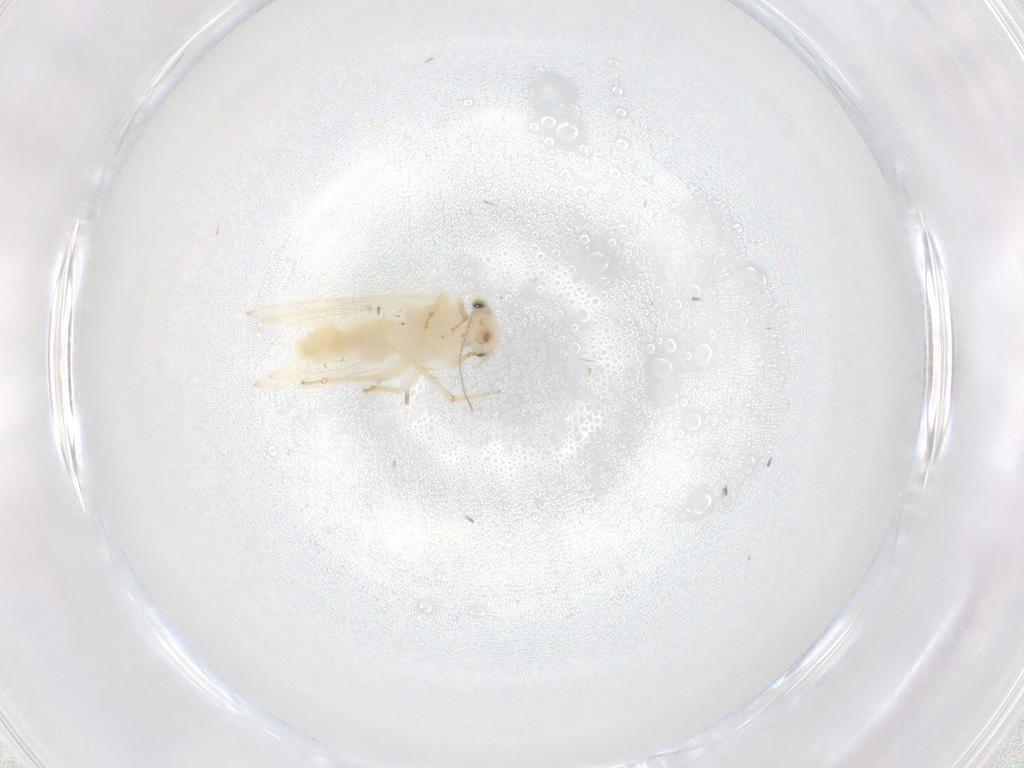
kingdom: Animalia
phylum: Arthropoda
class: Insecta
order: Psocodea
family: Lepidopsocidae
